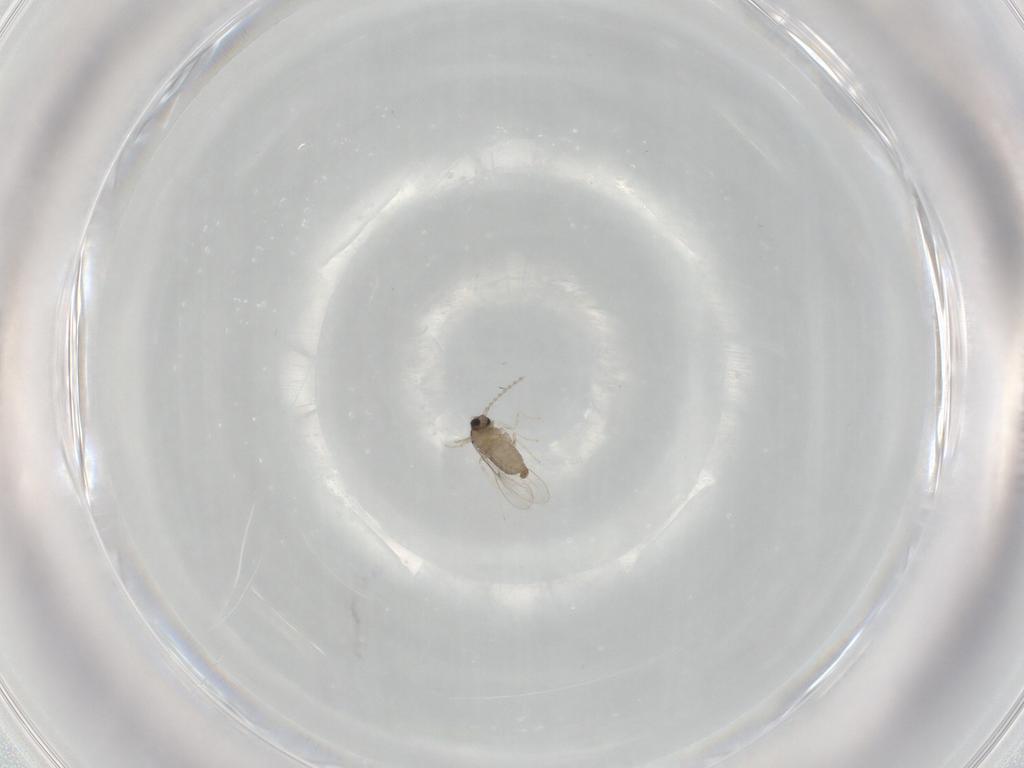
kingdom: Animalia
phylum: Arthropoda
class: Insecta
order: Diptera
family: Cecidomyiidae
